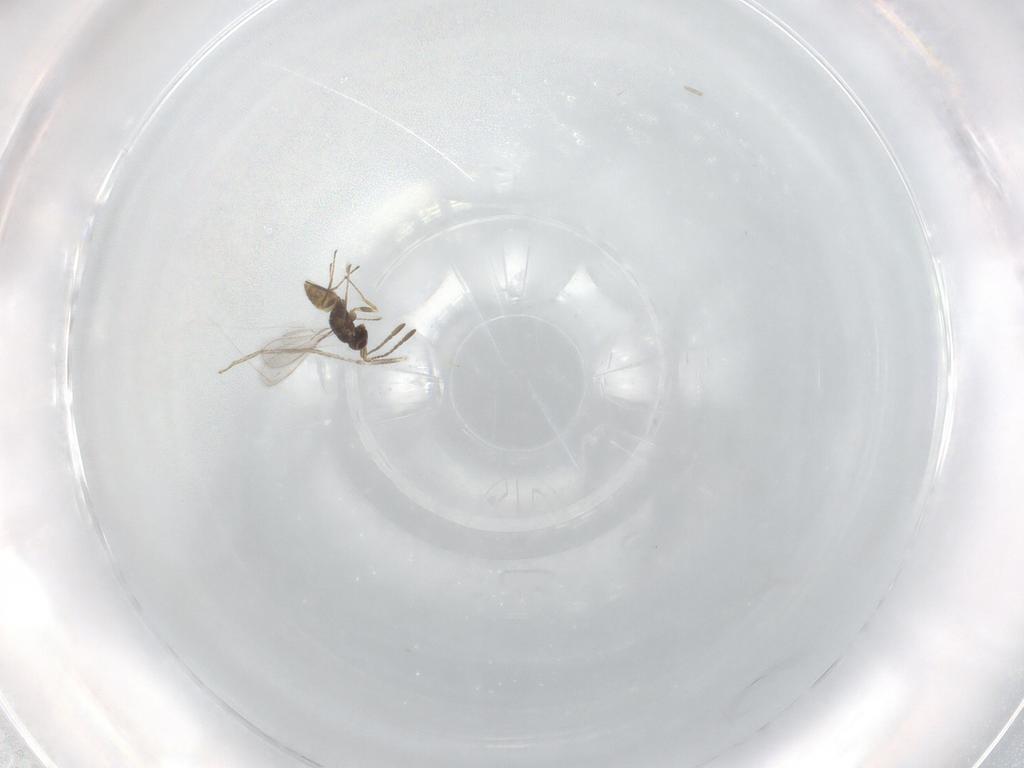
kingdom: Animalia
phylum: Arthropoda
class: Insecta
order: Hymenoptera
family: Mymaridae
